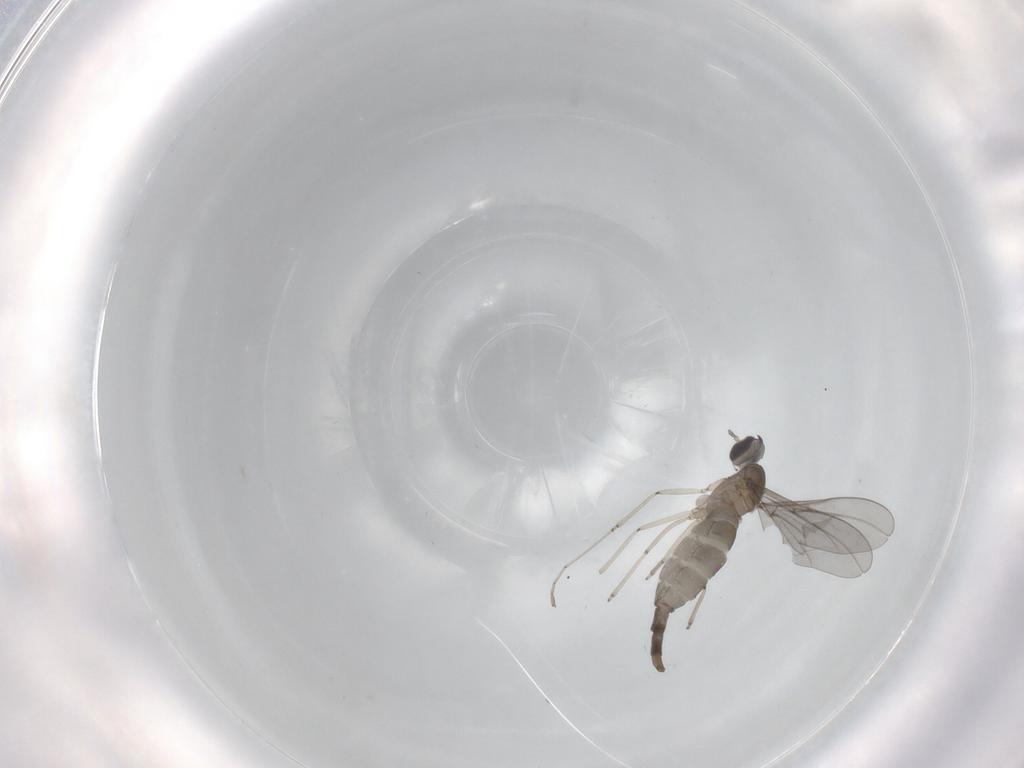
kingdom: Animalia
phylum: Arthropoda
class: Insecta
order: Diptera
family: Cecidomyiidae
